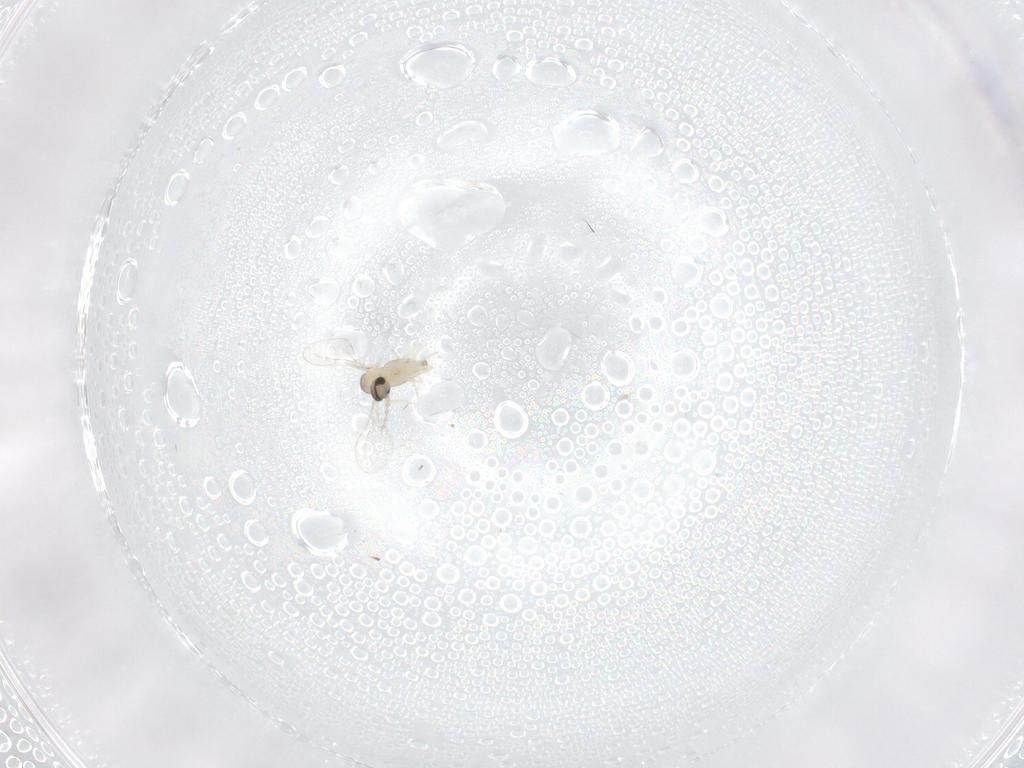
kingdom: Animalia
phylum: Arthropoda
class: Insecta
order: Diptera
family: Cecidomyiidae
